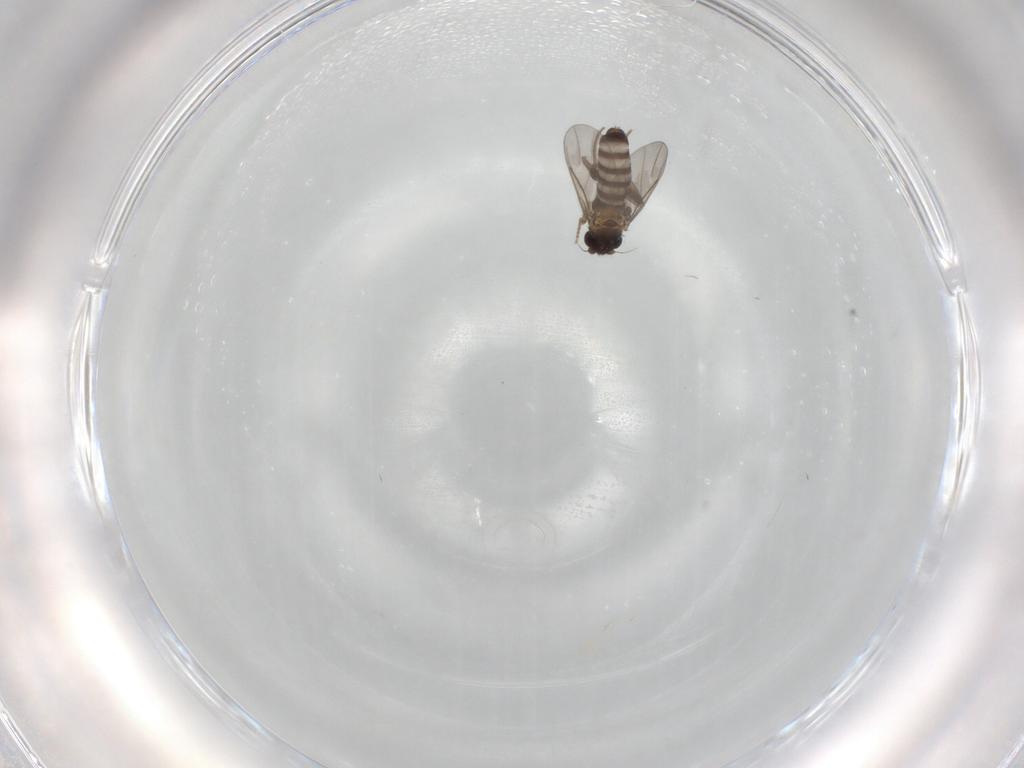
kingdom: Animalia
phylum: Arthropoda
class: Insecta
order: Diptera
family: Phoridae
